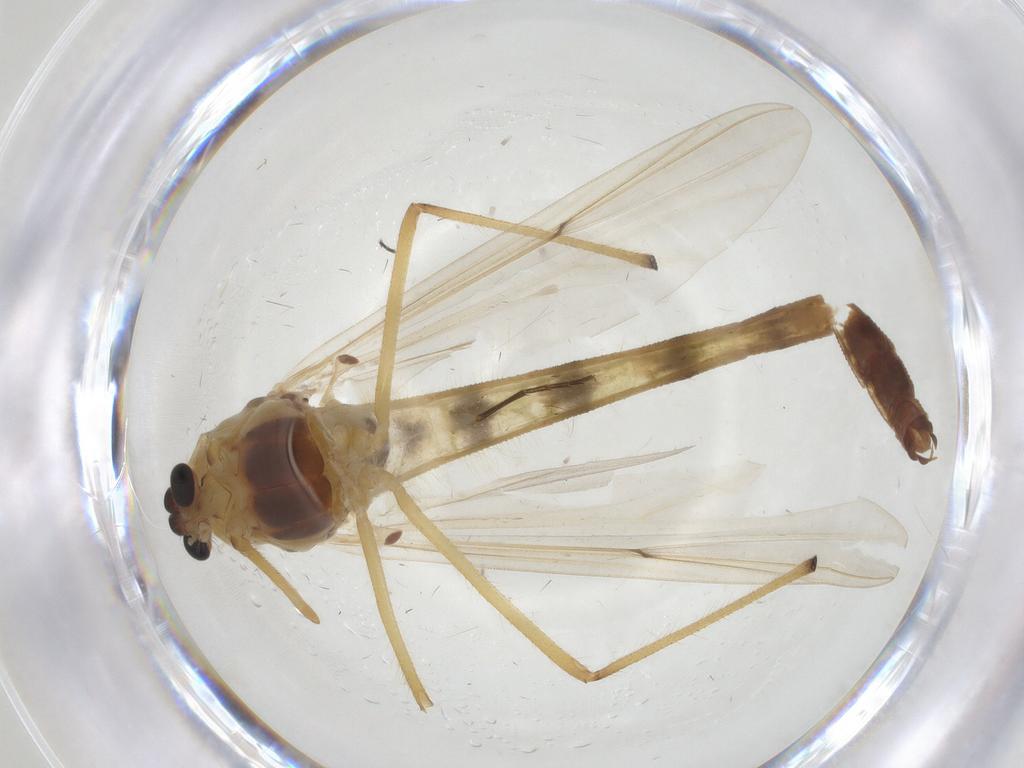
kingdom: Animalia
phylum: Arthropoda
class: Insecta
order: Diptera
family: Chironomidae
